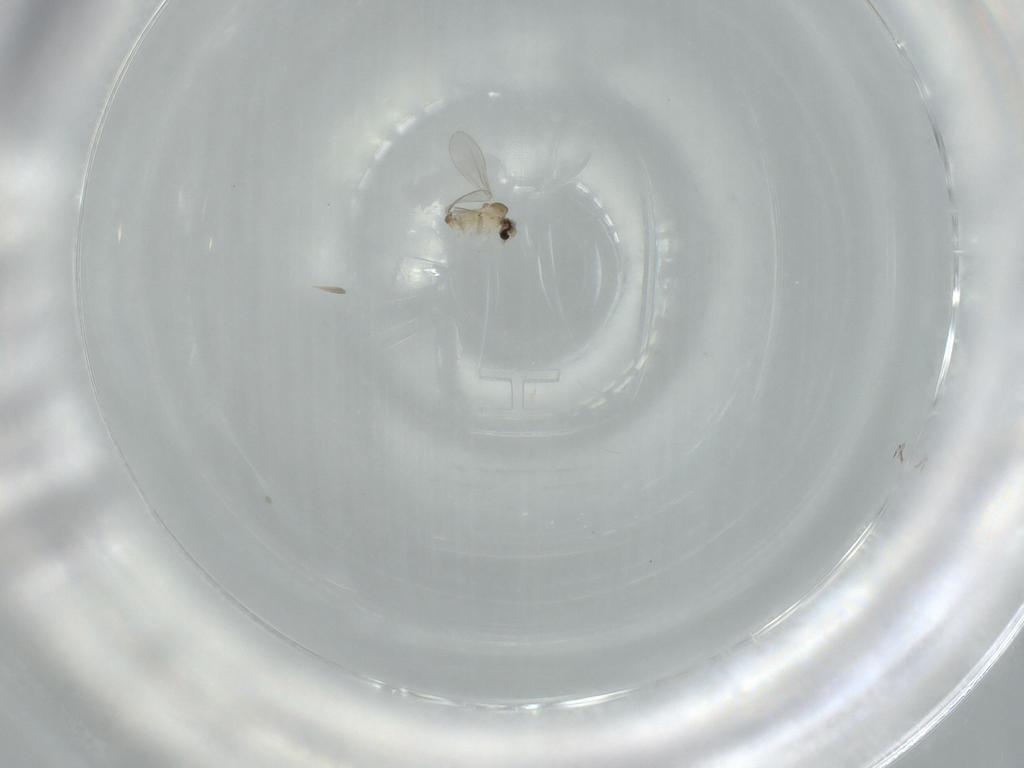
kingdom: Animalia
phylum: Arthropoda
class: Insecta
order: Diptera
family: Cecidomyiidae
